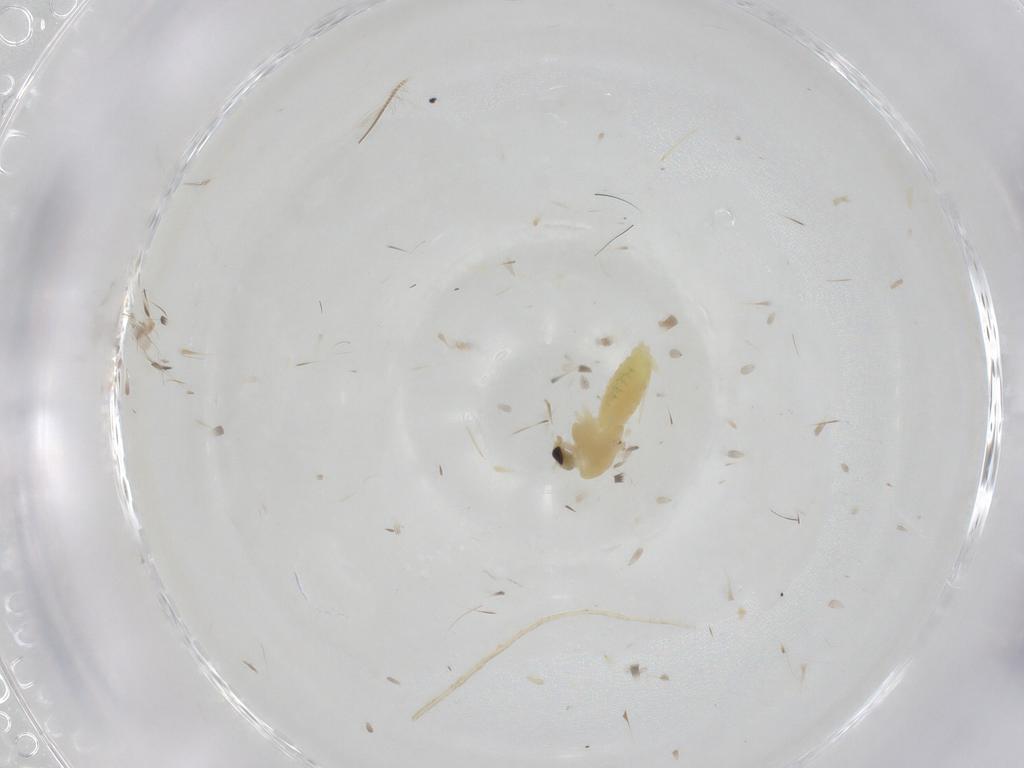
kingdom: Animalia
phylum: Arthropoda
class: Insecta
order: Diptera
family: Chironomidae
